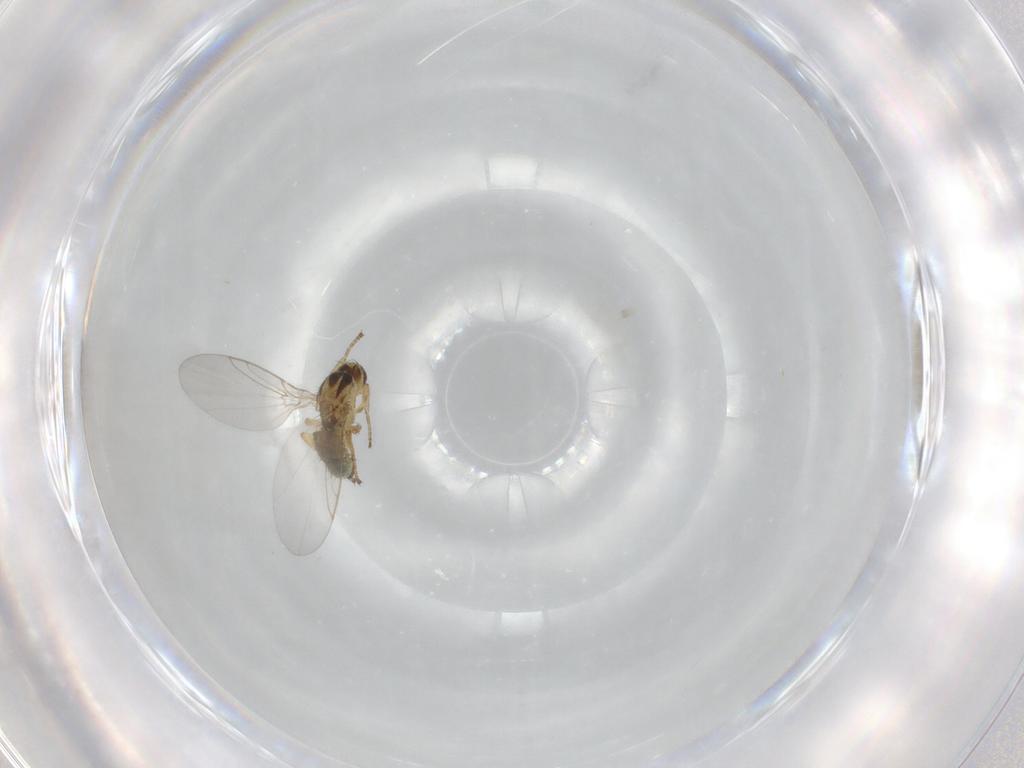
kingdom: Animalia
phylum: Arthropoda
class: Insecta
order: Diptera
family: Agromyzidae
